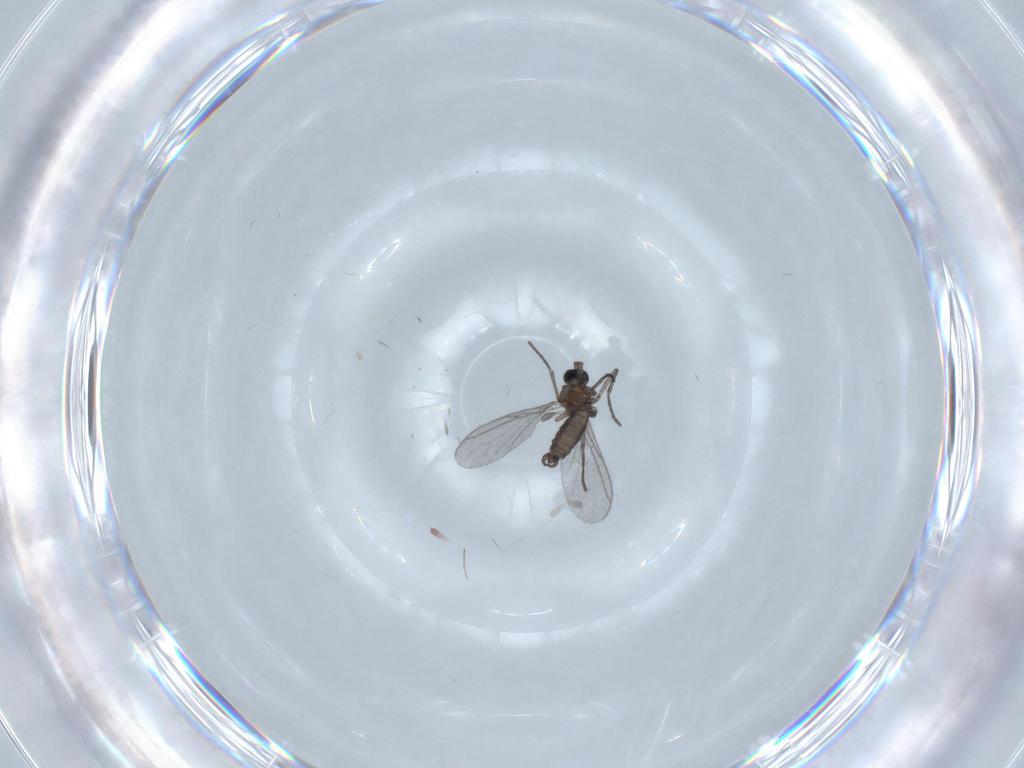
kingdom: Animalia
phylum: Arthropoda
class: Insecta
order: Diptera
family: Chironomidae
